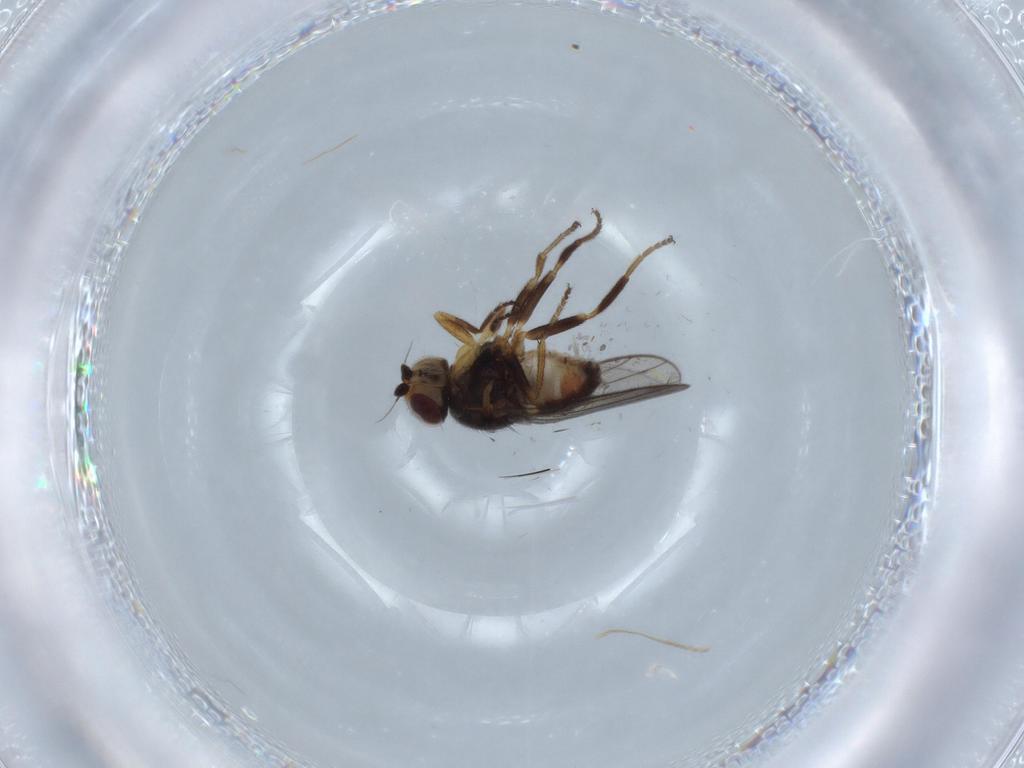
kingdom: Animalia
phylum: Arthropoda
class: Insecta
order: Diptera
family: Chloropidae
